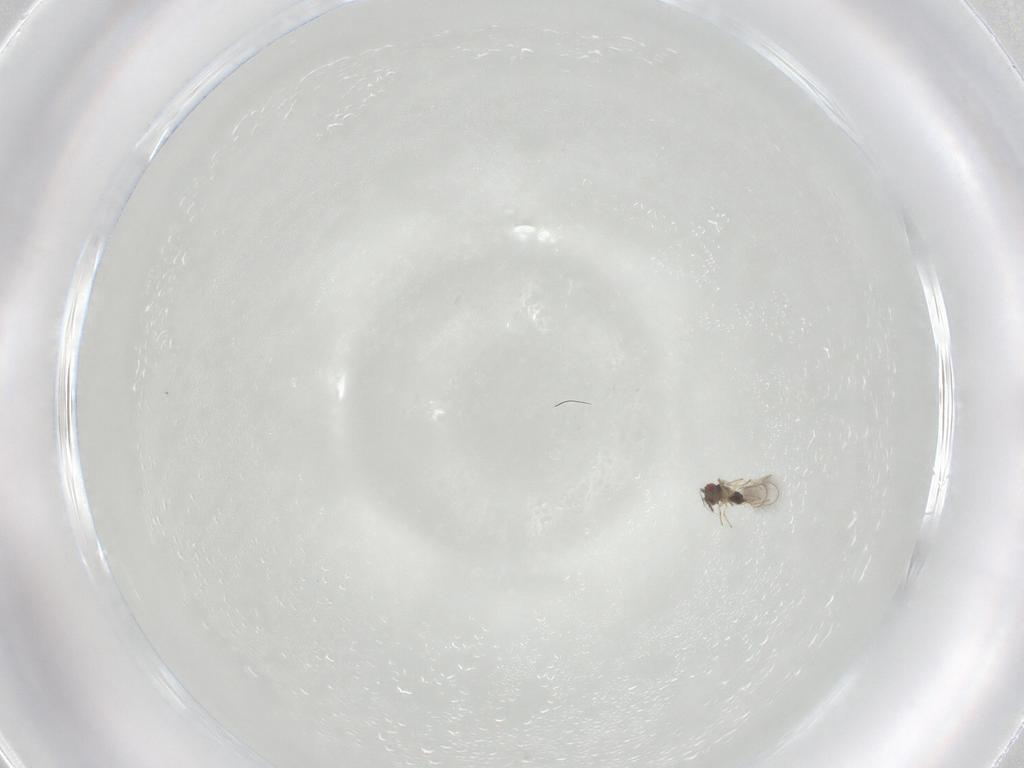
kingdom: Animalia
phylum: Arthropoda
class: Insecta
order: Hymenoptera
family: Eulophidae
